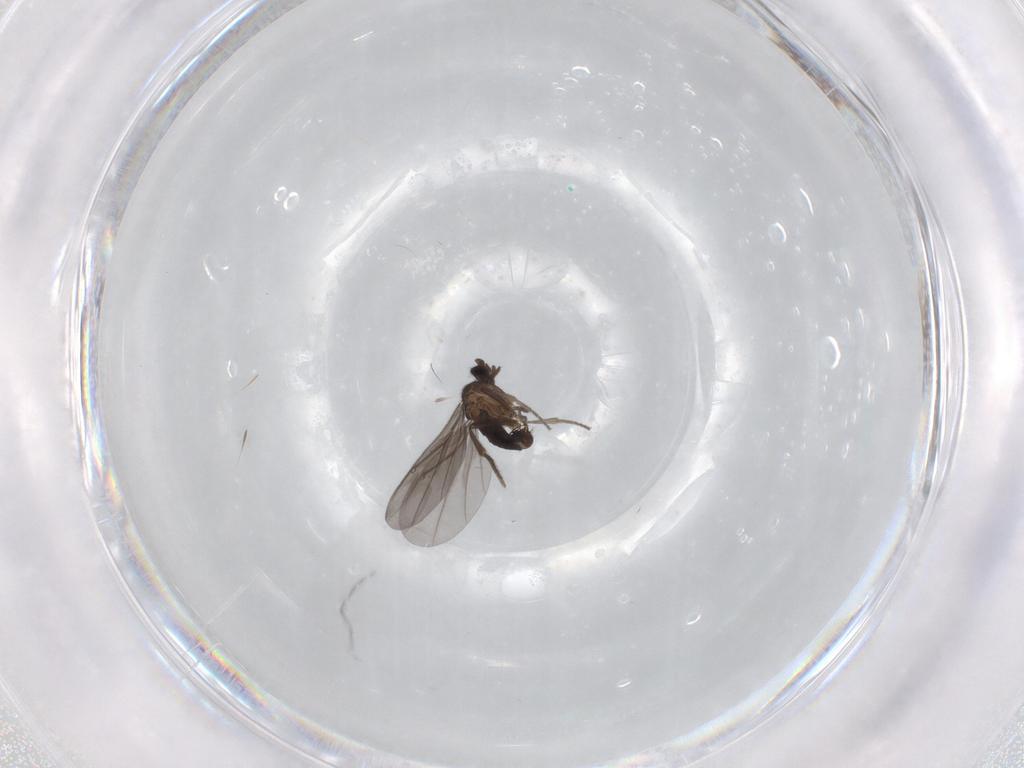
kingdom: Animalia
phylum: Arthropoda
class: Insecta
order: Diptera
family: Phoridae
